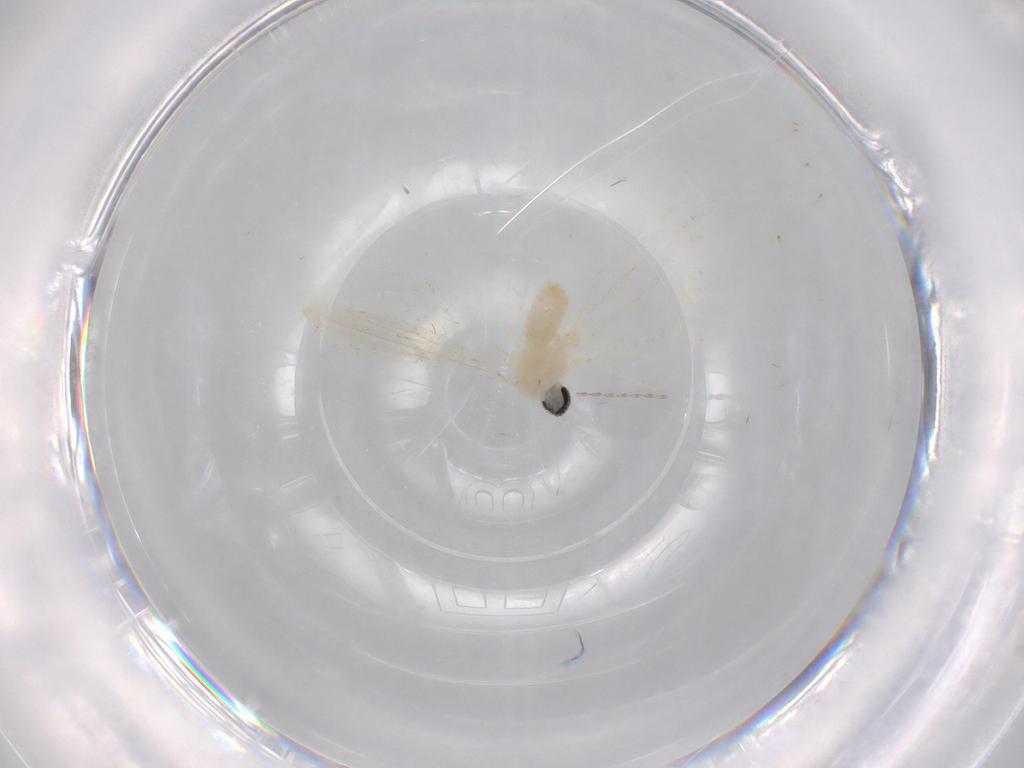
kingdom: Animalia
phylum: Arthropoda
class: Insecta
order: Diptera
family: Cecidomyiidae
